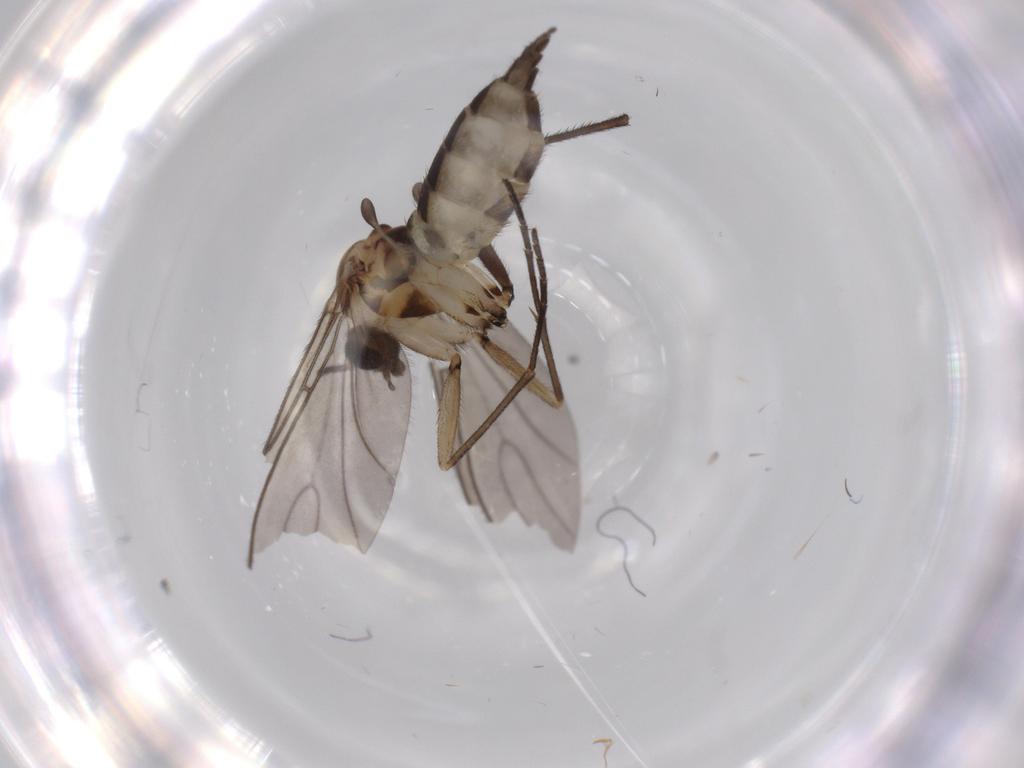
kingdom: Animalia
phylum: Arthropoda
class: Insecta
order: Diptera
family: Sciaridae
